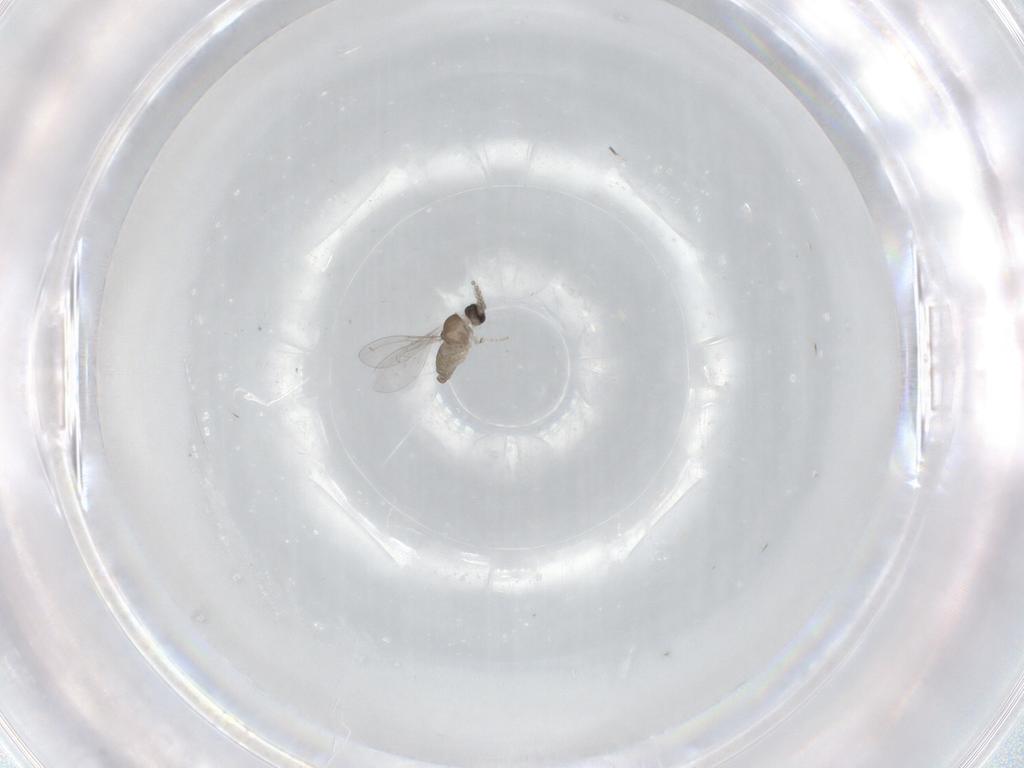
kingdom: Animalia
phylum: Arthropoda
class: Insecta
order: Diptera
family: Cecidomyiidae
